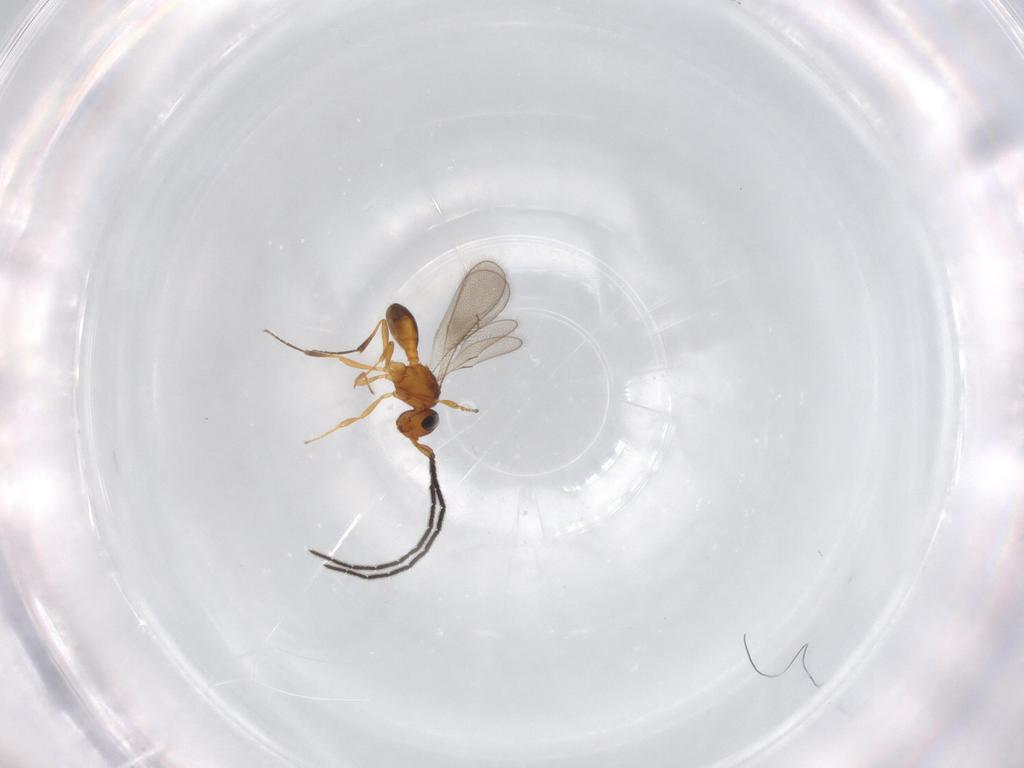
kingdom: Animalia
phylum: Arthropoda
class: Insecta
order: Hymenoptera
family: Scelionidae
